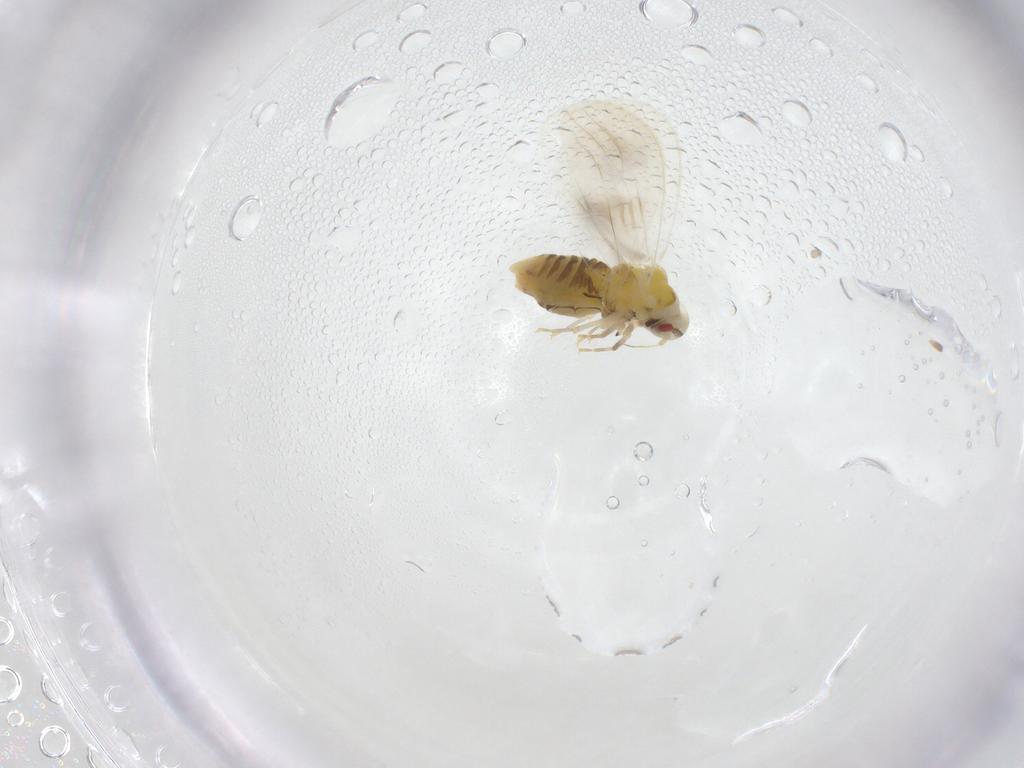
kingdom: Animalia
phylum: Arthropoda
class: Insecta
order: Hemiptera
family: Aleyrodidae
